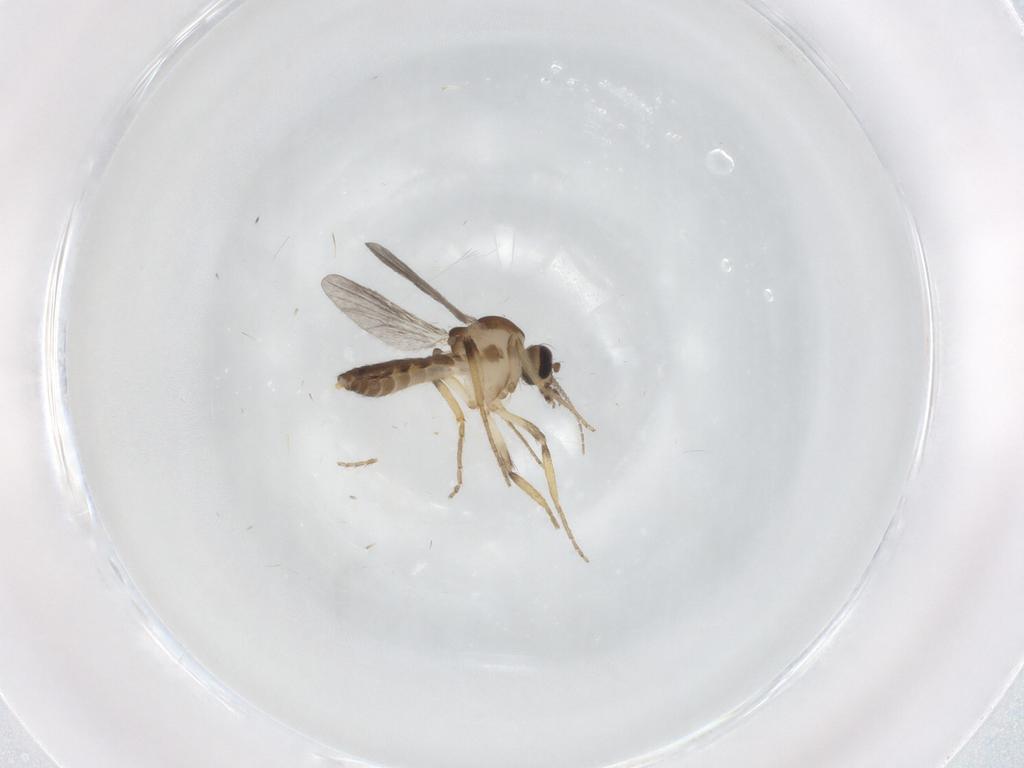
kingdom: Animalia
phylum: Arthropoda
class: Insecta
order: Diptera
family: Ceratopogonidae
